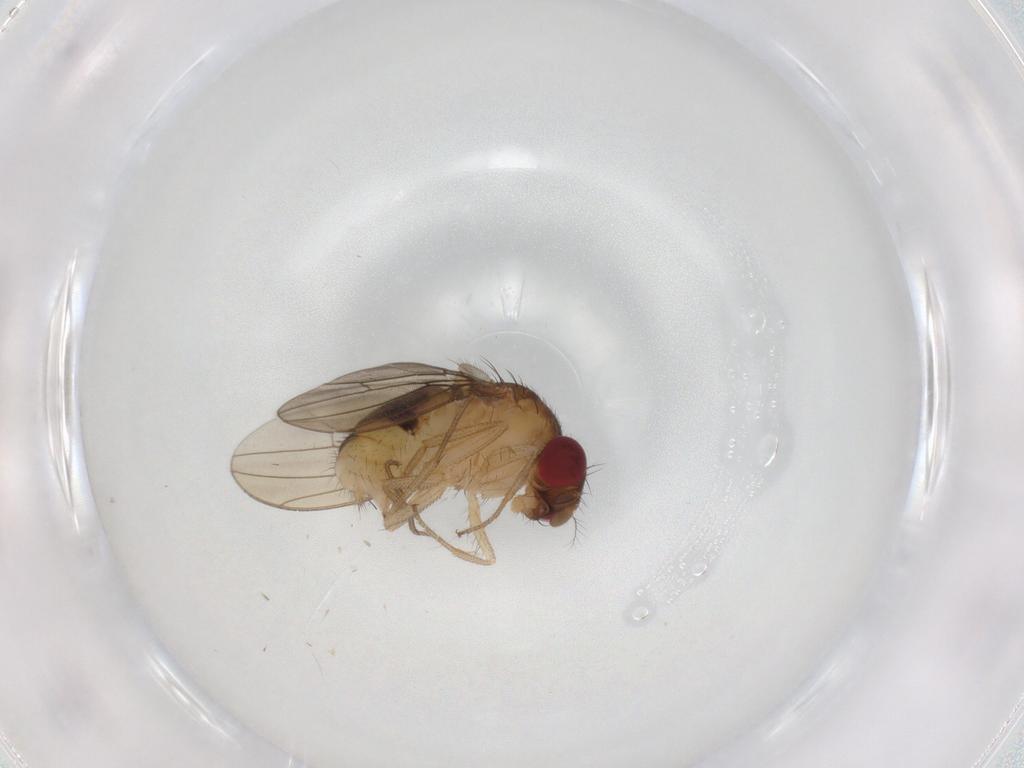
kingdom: Animalia
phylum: Arthropoda
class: Insecta
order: Diptera
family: Drosophilidae
